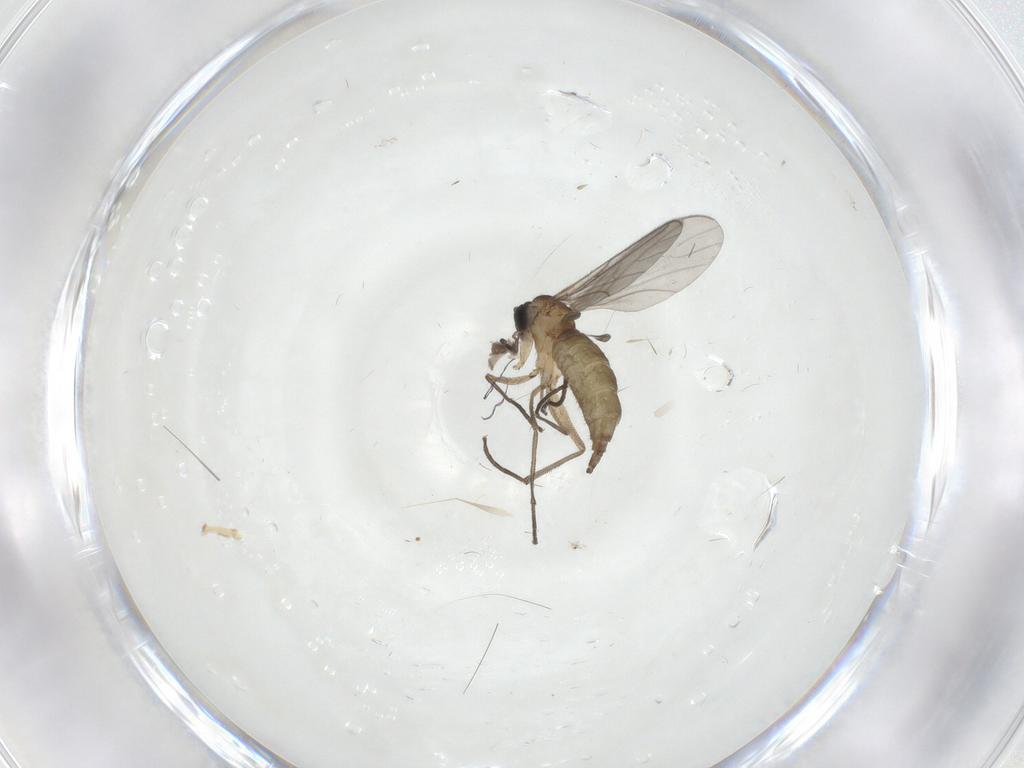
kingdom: Animalia
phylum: Arthropoda
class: Insecta
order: Diptera
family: Sciaridae
